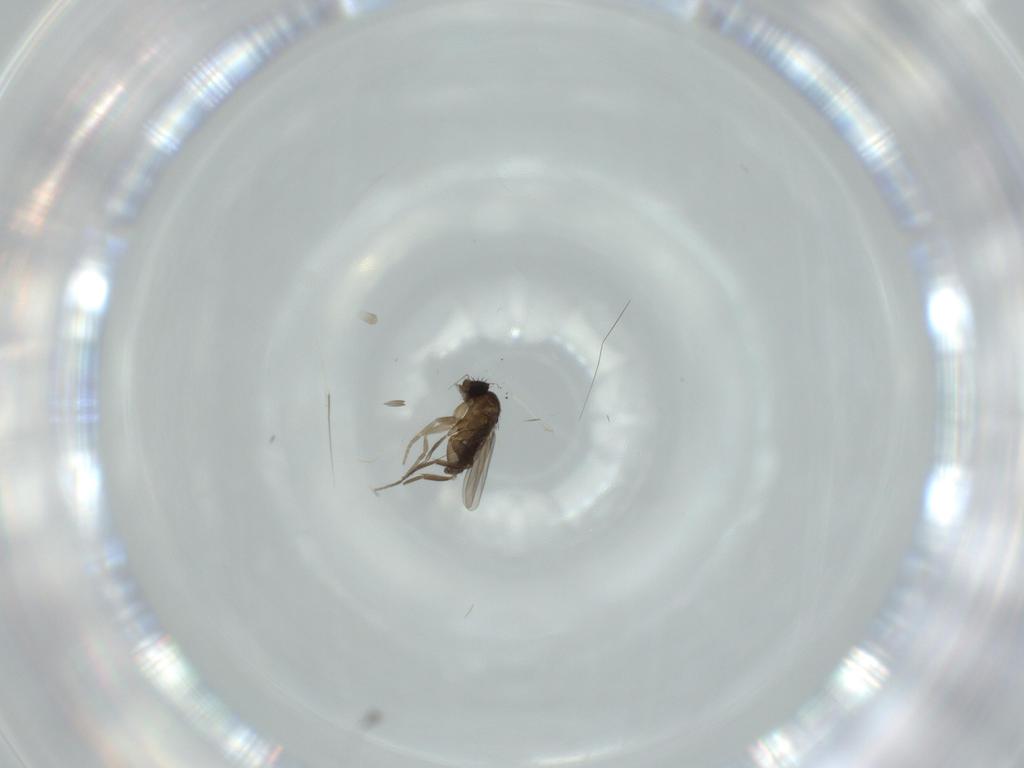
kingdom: Animalia
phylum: Arthropoda
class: Insecta
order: Diptera
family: Phoridae
